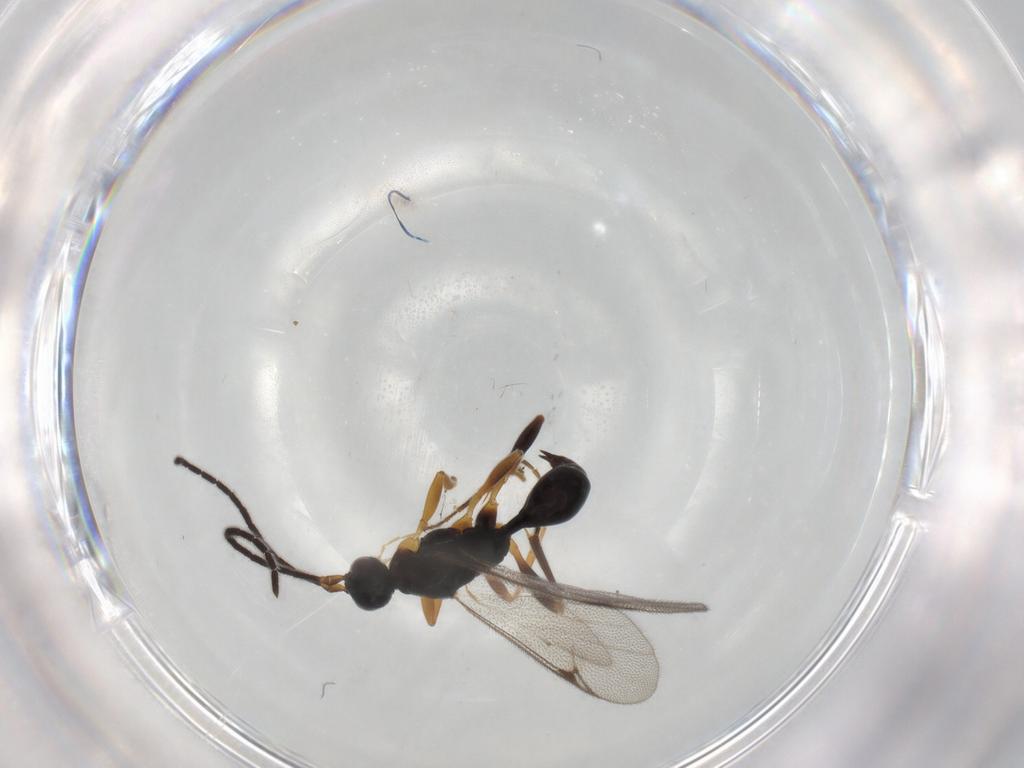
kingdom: Animalia
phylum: Arthropoda
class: Insecta
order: Hymenoptera
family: Proctotrupidae
